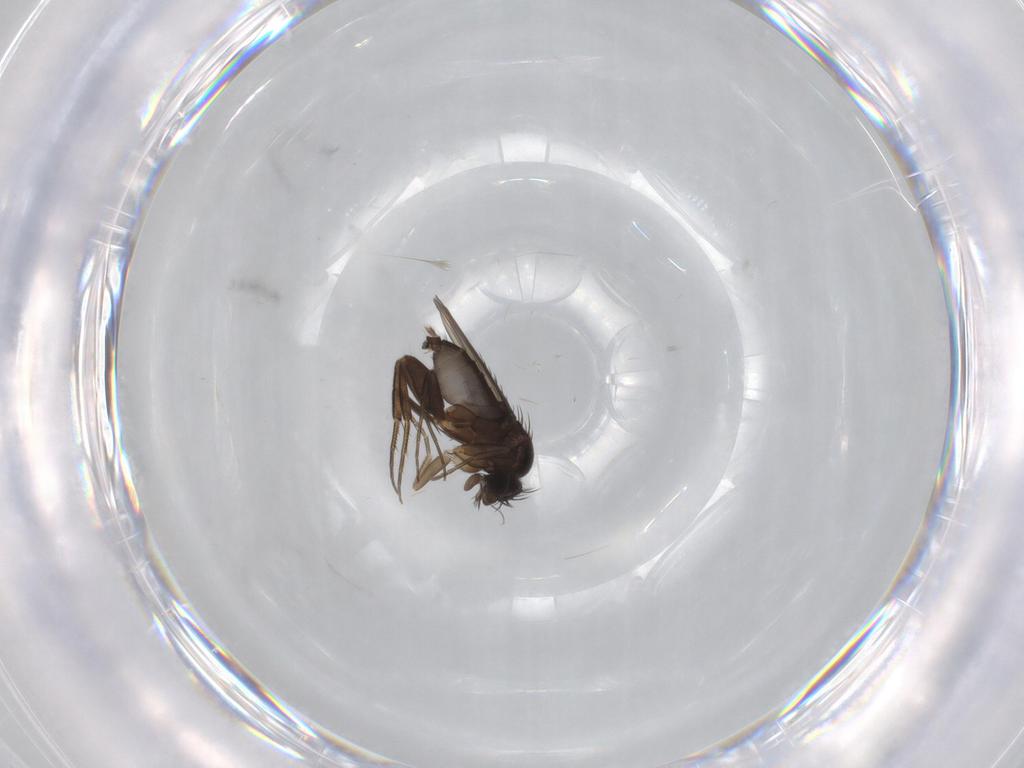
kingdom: Animalia
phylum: Arthropoda
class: Insecta
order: Diptera
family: Phoridae
